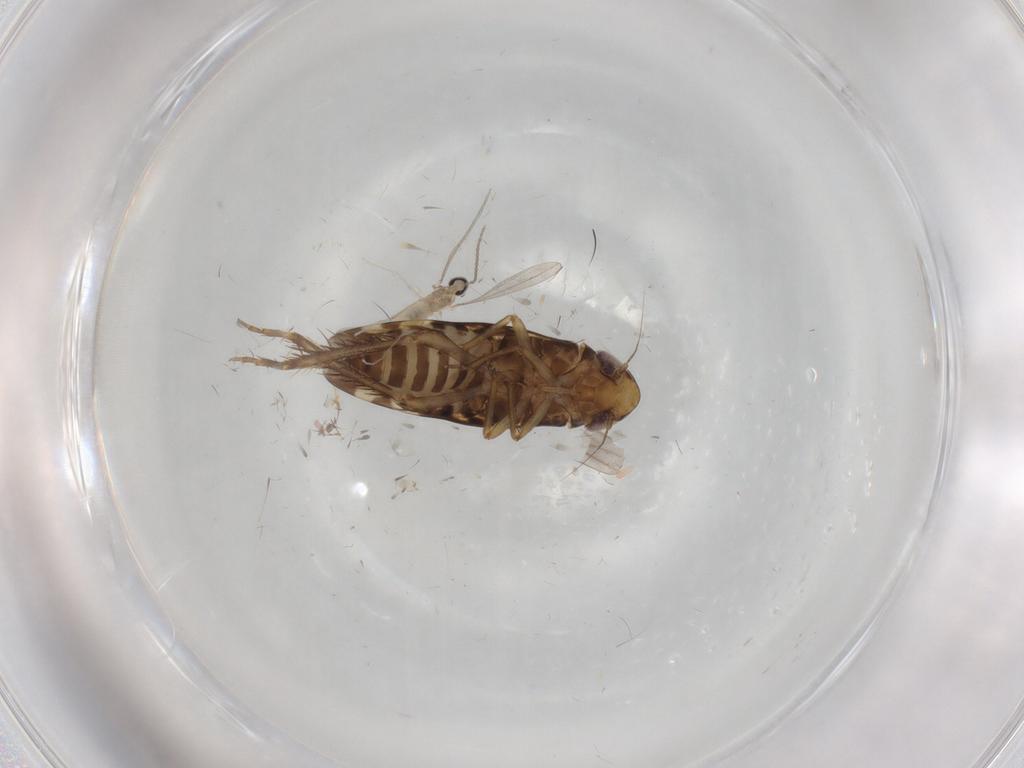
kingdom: Animalia
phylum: Arthropoda
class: Insecta
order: Hemiptera
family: Cicadellidae
